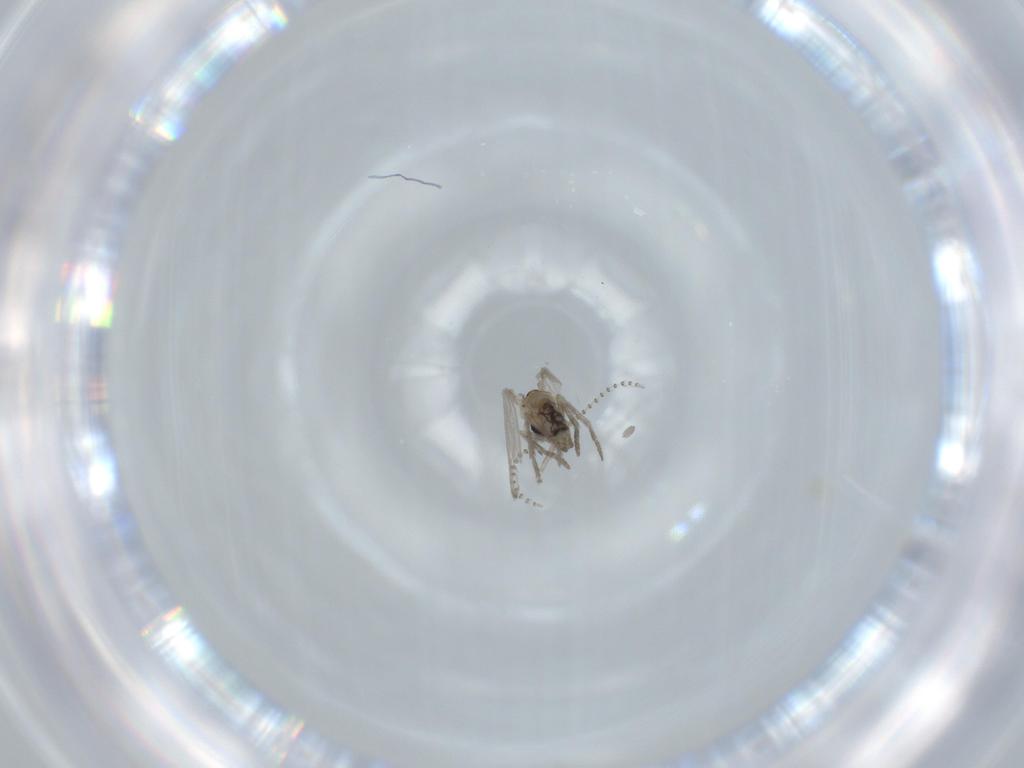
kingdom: Animalia
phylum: Arthropoda
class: Insecta
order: Diptera
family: Psychodidae
